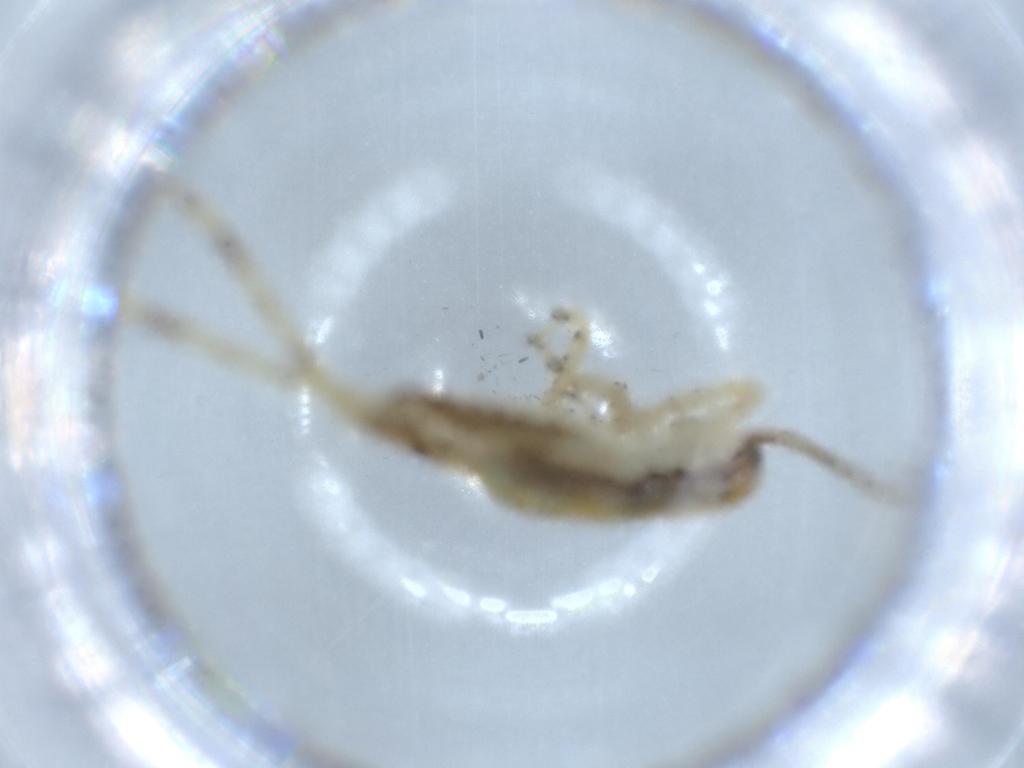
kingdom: Animalia
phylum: Arthropoda
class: Insecta
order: Orthoptera
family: Gryllidae
